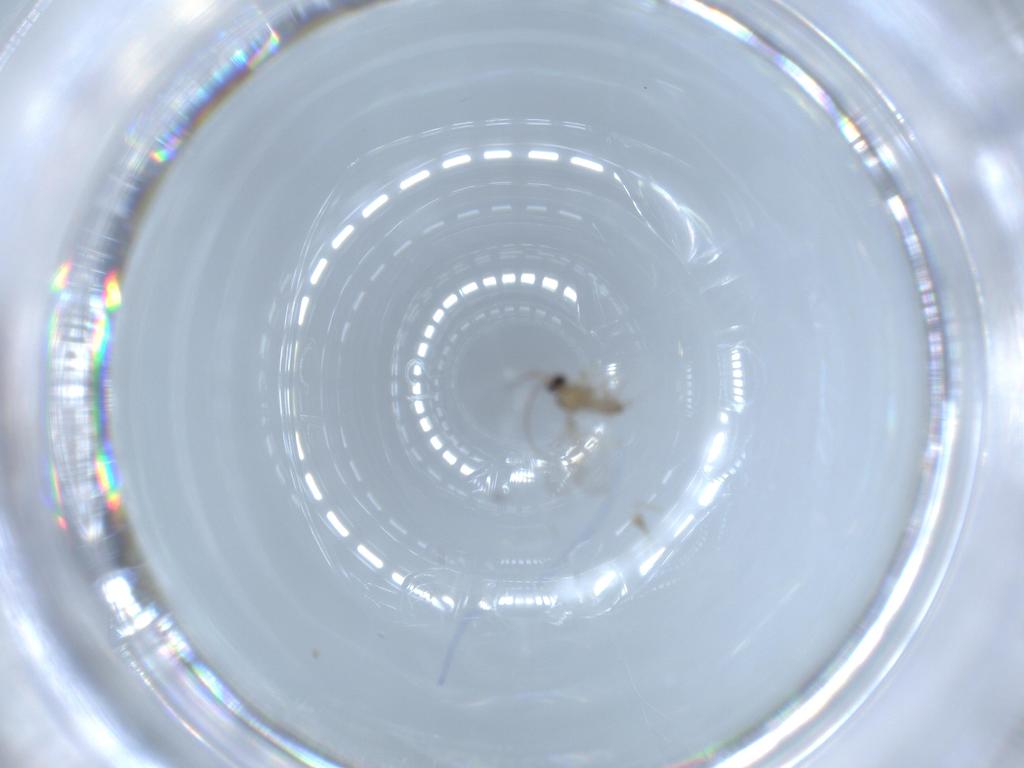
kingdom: Animalia
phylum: Arthropoda
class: Insecta
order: Diptera
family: Cecidomyiidae
